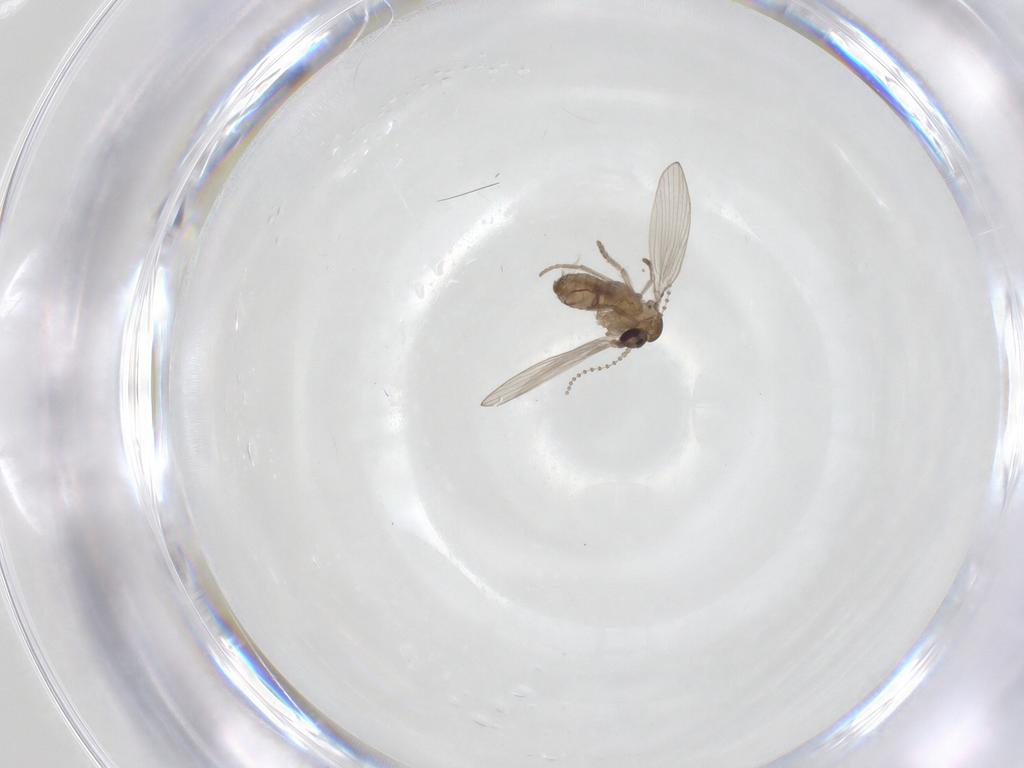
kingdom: Animalia
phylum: Arthropoda
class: Insecta
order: Diptera
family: Psychodidae
